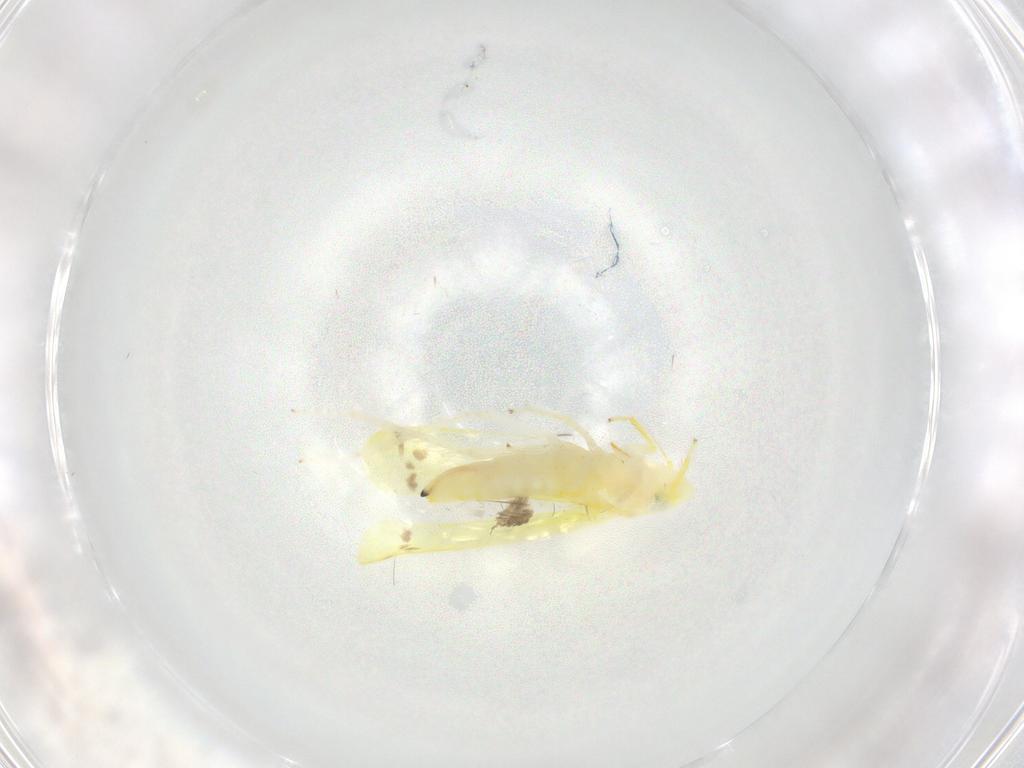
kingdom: Animalia
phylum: Arthropoda
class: Insecta
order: Hemiptera
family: Cicadellidae
